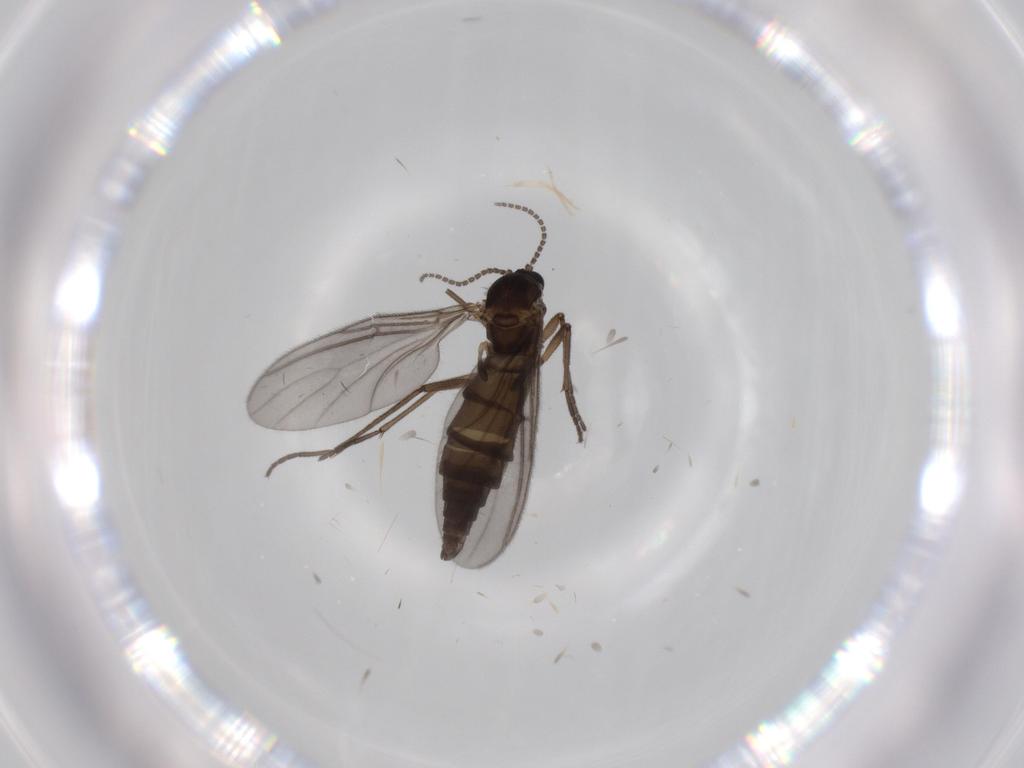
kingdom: Animalia
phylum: Arthropoda
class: Insecta
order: Diptera
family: Sciaridae
